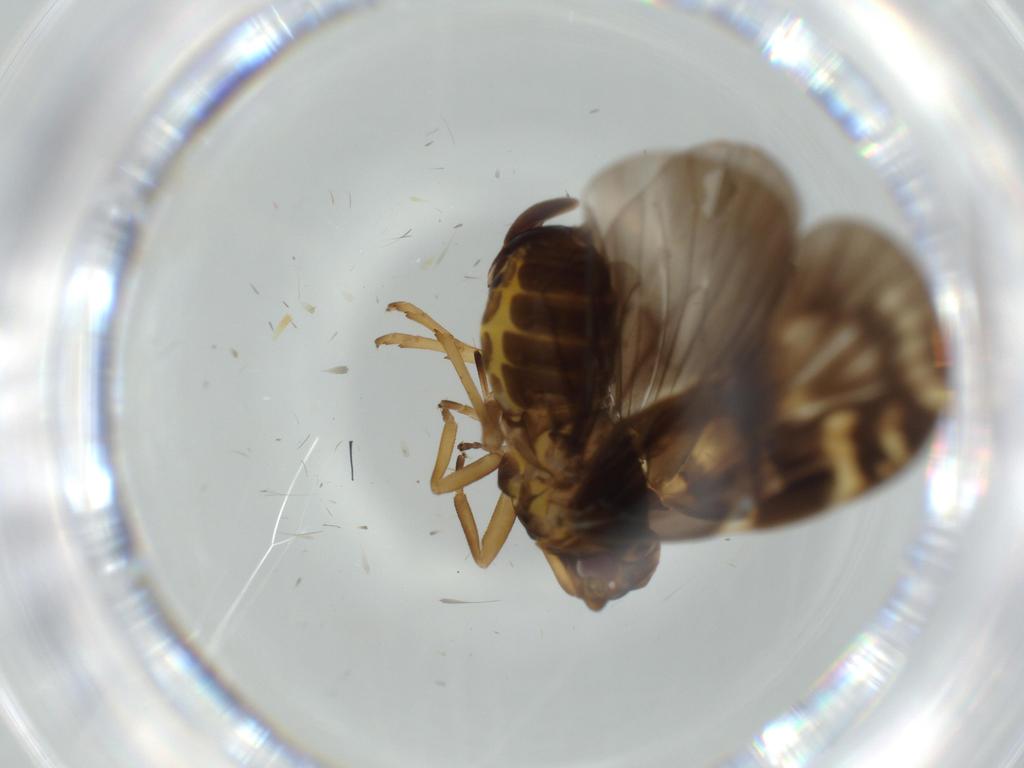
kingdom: Animalia
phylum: Arthropoda
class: Insecta
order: Hemiptera
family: Cixiidae
